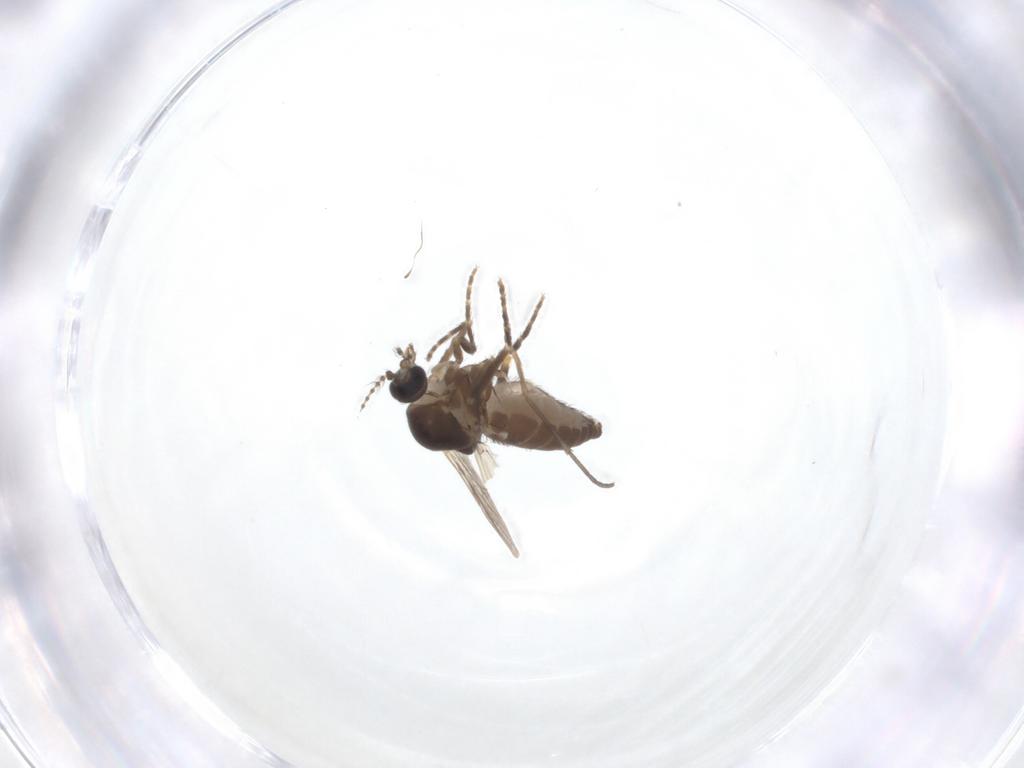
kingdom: Animalia
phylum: Arthropoda
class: Insecta
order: Diptera
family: Ceratopogonidae
